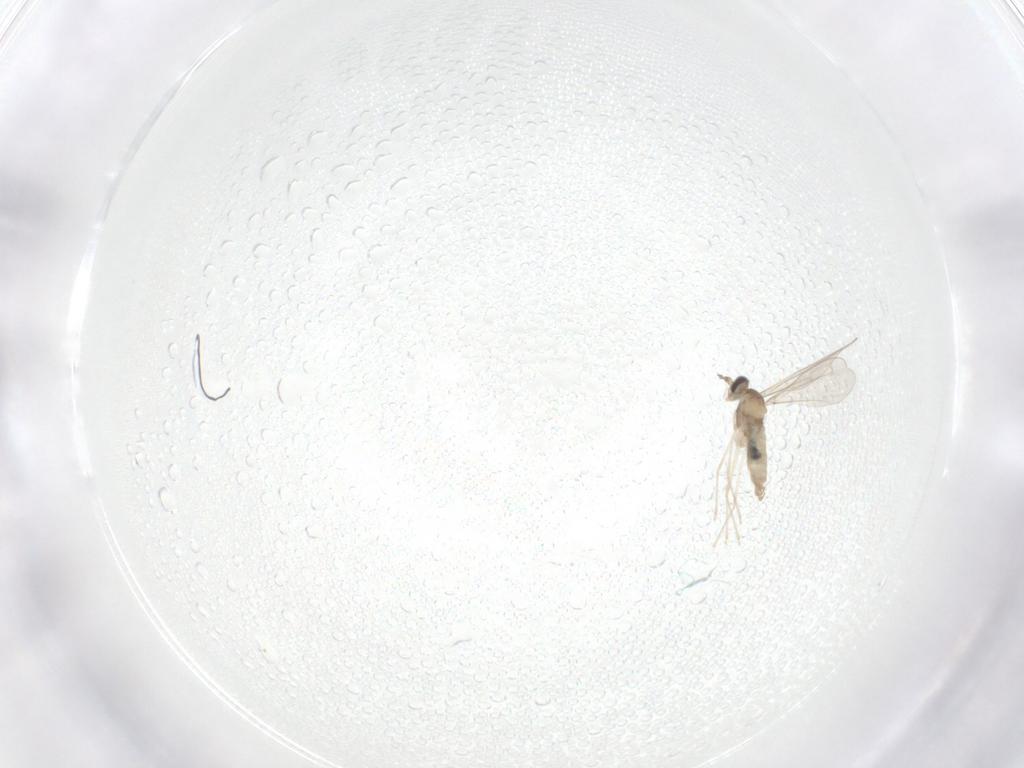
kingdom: Animalia
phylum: Arthropoda
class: Insecta
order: Diptera
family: Cecidomyiidae
